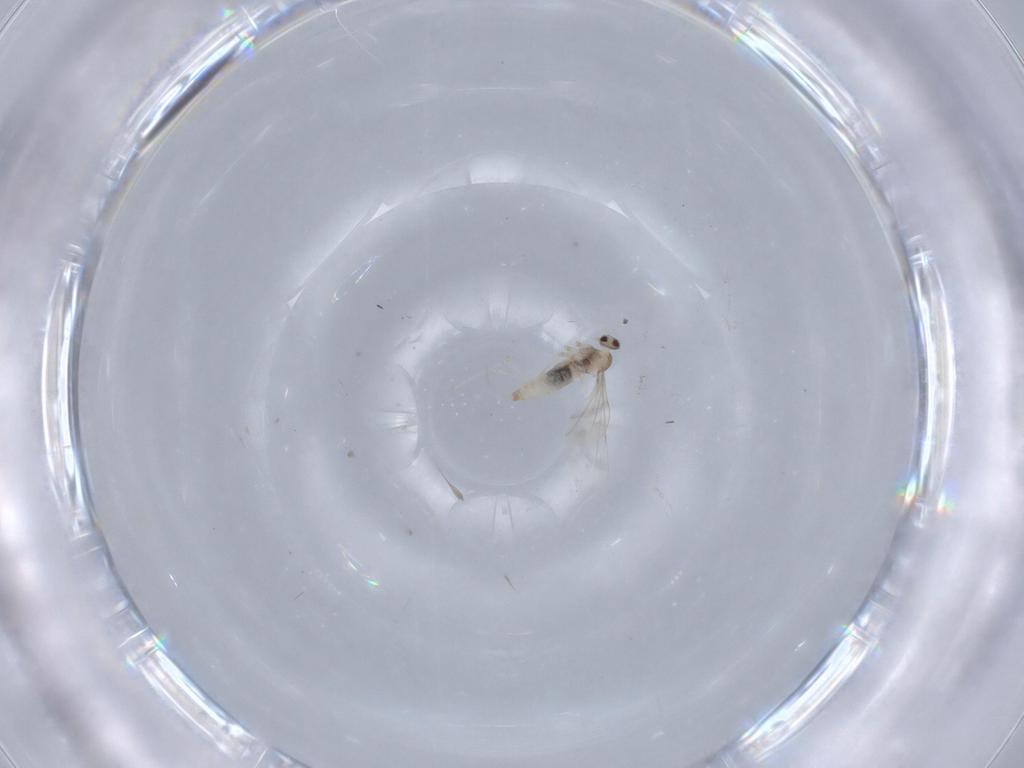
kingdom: Animalia
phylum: Arthropoda
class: Insecta
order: Diptera
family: Cecidomyiidae
